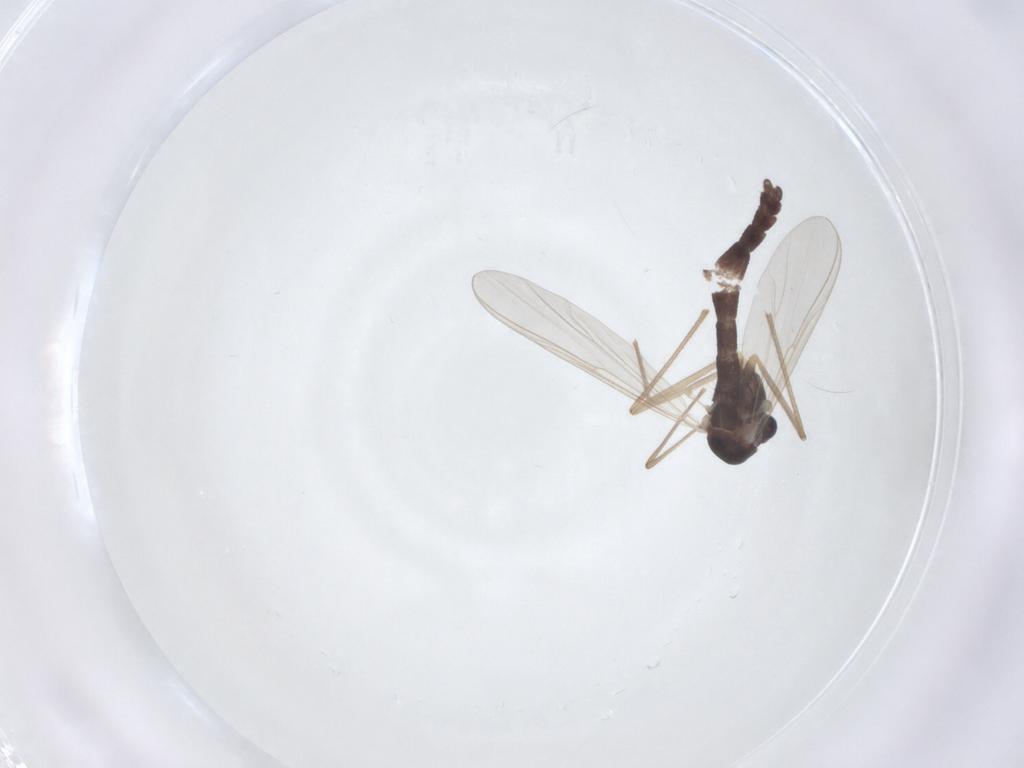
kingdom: Animalia
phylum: Arthropoda
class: Insecta
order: Diptera
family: Chironomidae
